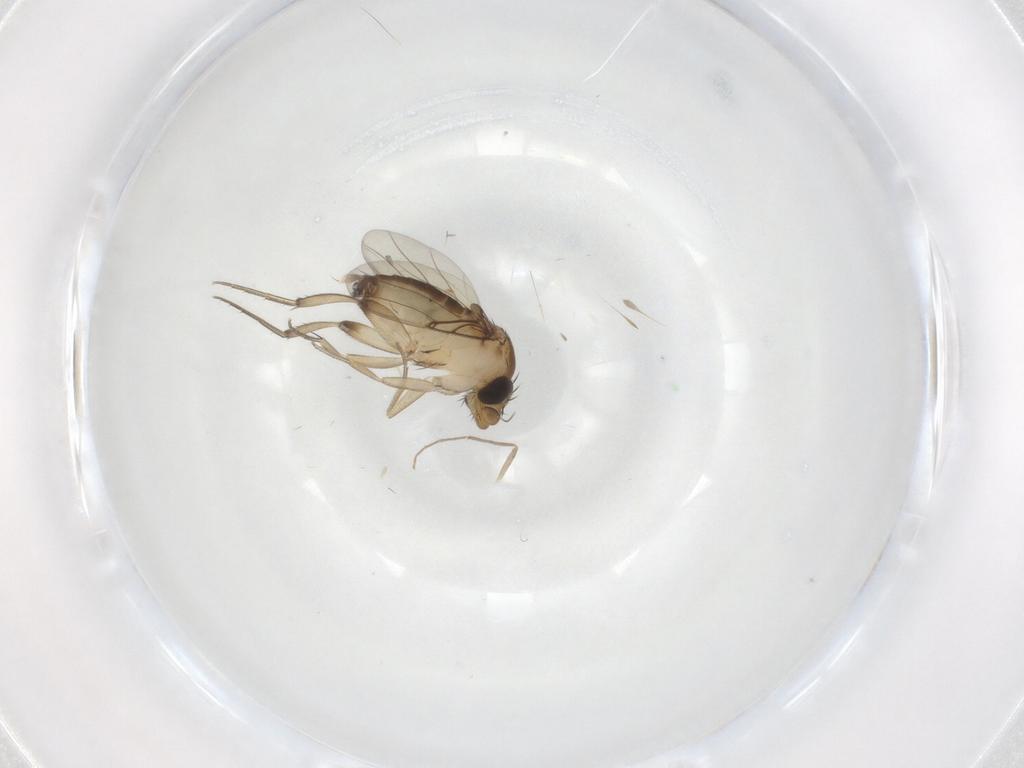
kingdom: Animalia
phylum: Arthropoda
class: Insecta
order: Diptera
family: Phoridae
